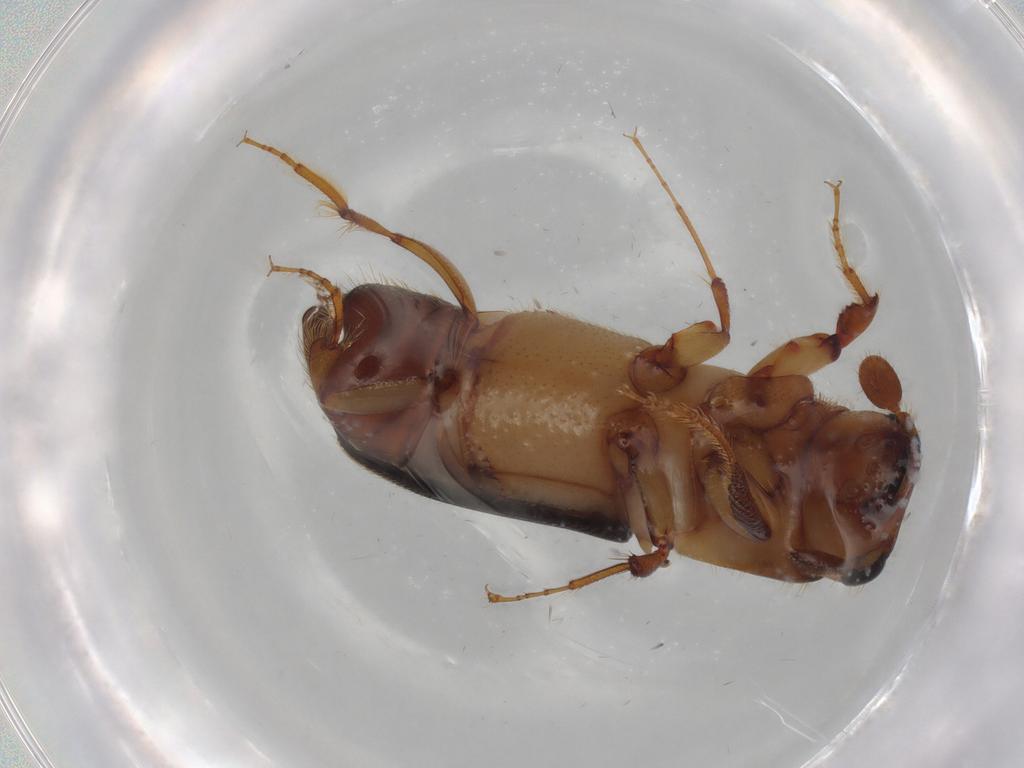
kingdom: Animalia
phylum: Arthropoda
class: Insecta
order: Coleoptera
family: Curculionidae
